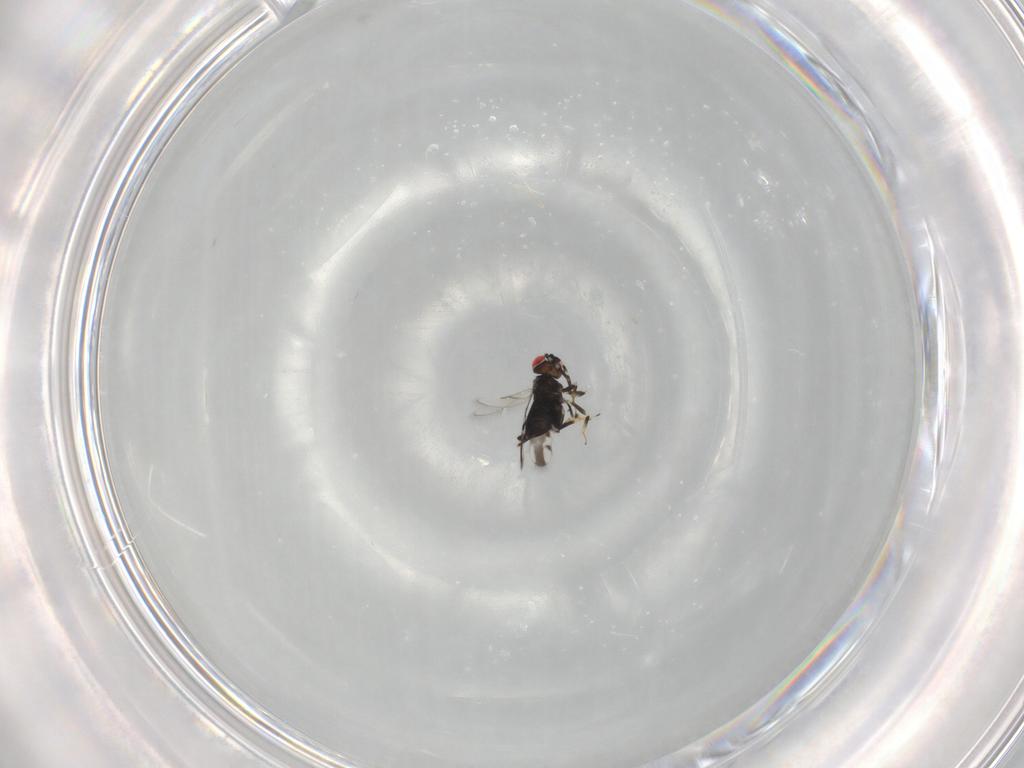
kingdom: Animalia
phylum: Arthropoda
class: Insecta
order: Hymenoptera
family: Azotidae
